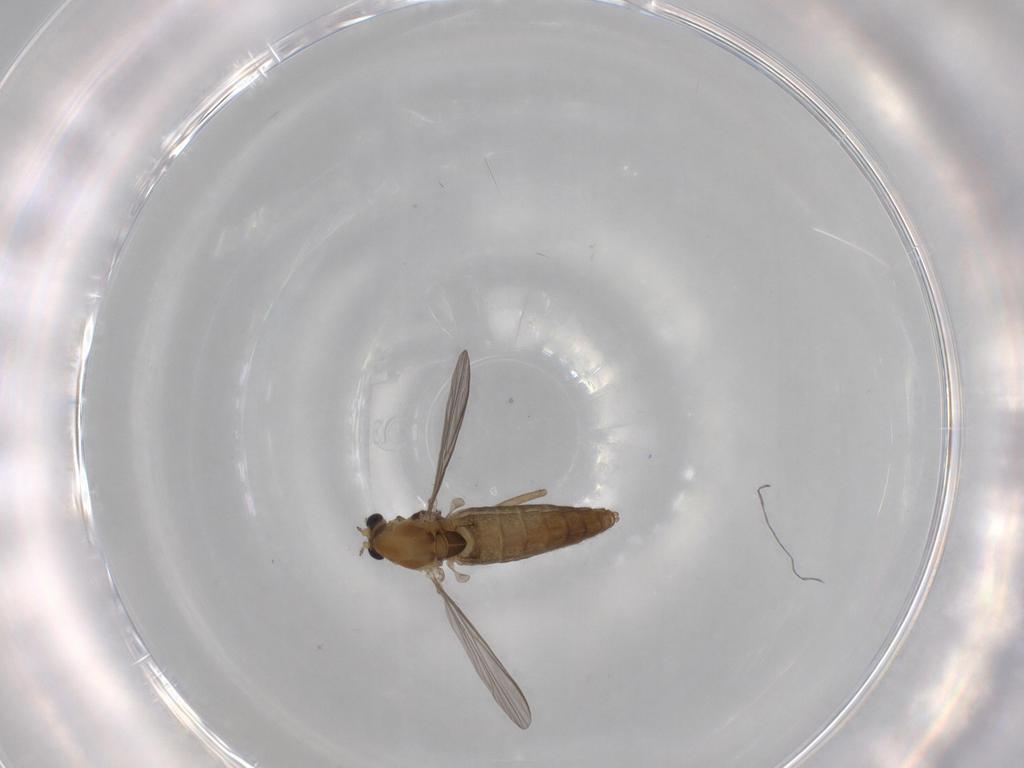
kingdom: Animalia
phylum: Arthropoda
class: Insecta
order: Diptera
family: Chironomidae
